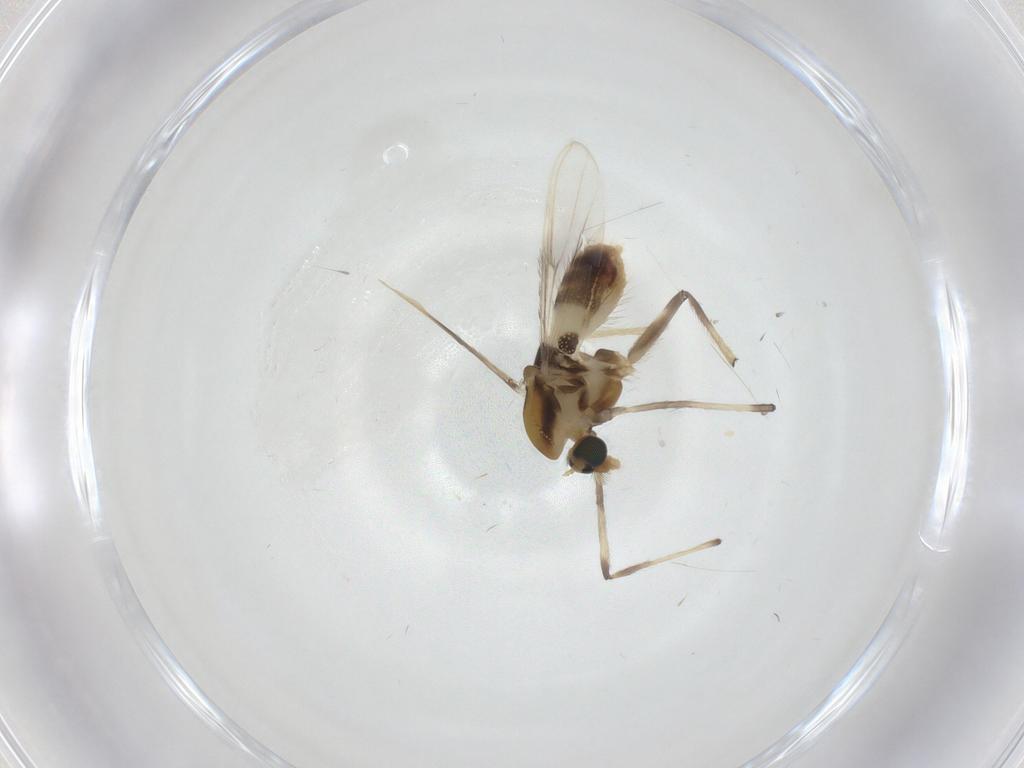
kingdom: Animalia
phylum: Arthropoda
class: Insecta
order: Diptera
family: Chironomidae
